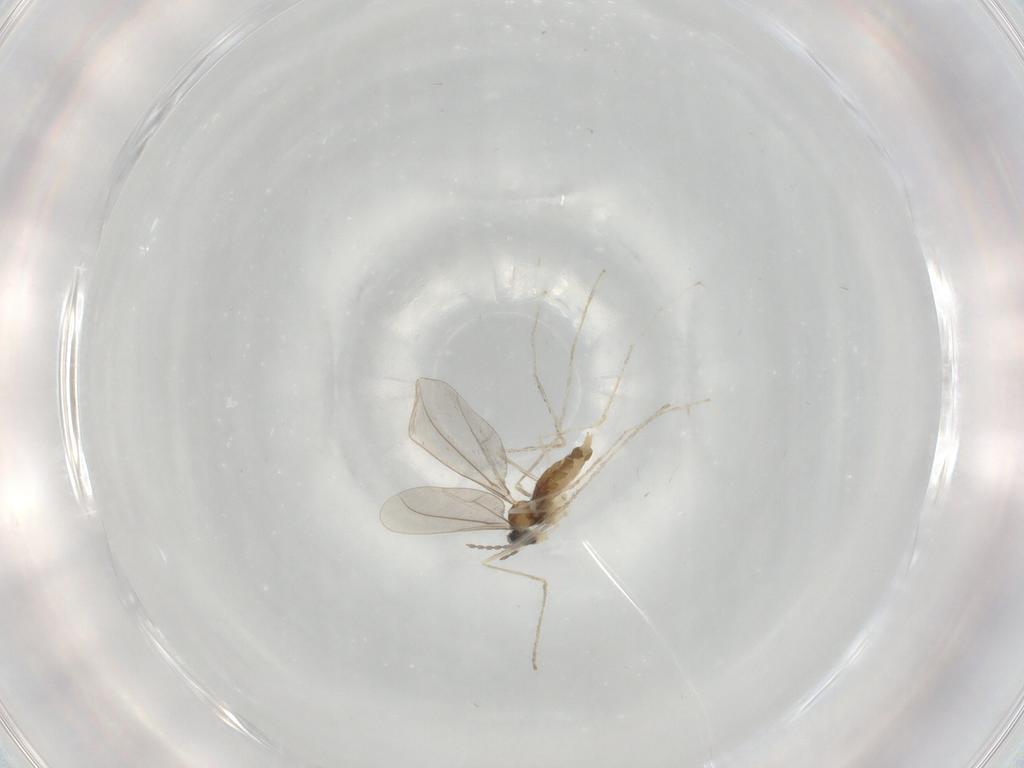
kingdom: Animalia
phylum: Arthropoda
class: Insecta
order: Diptera
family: Cecidomyiidae
